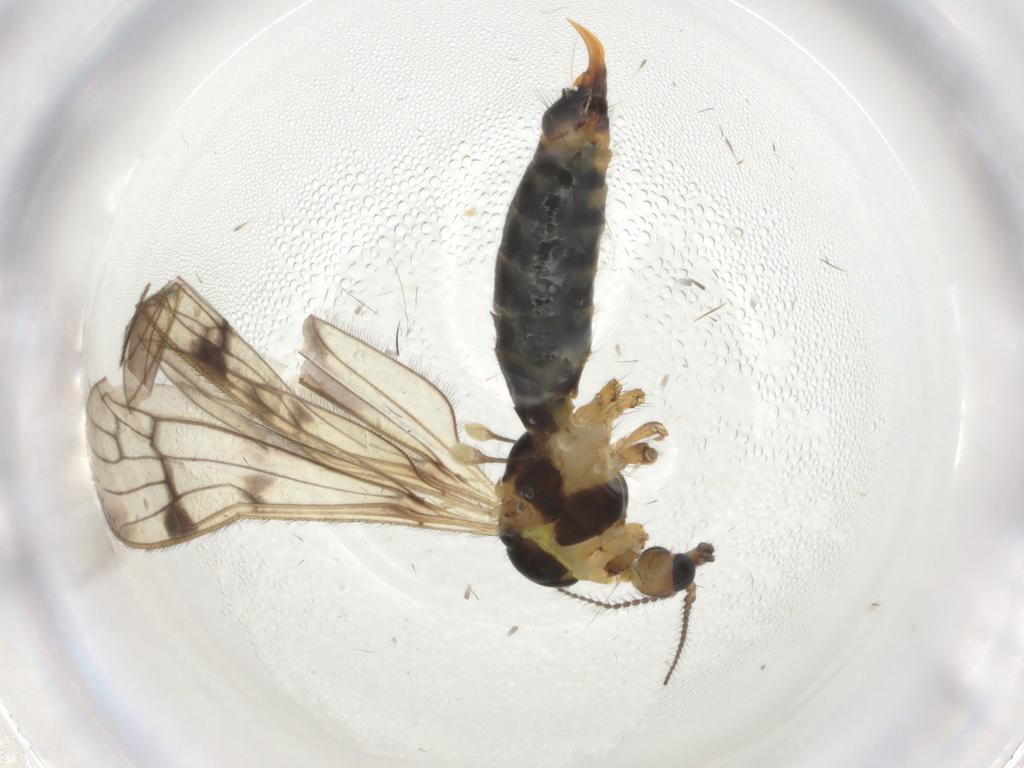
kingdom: Animalia
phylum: Arthropoda
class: Insecta
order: Diptera
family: Limoniidae
